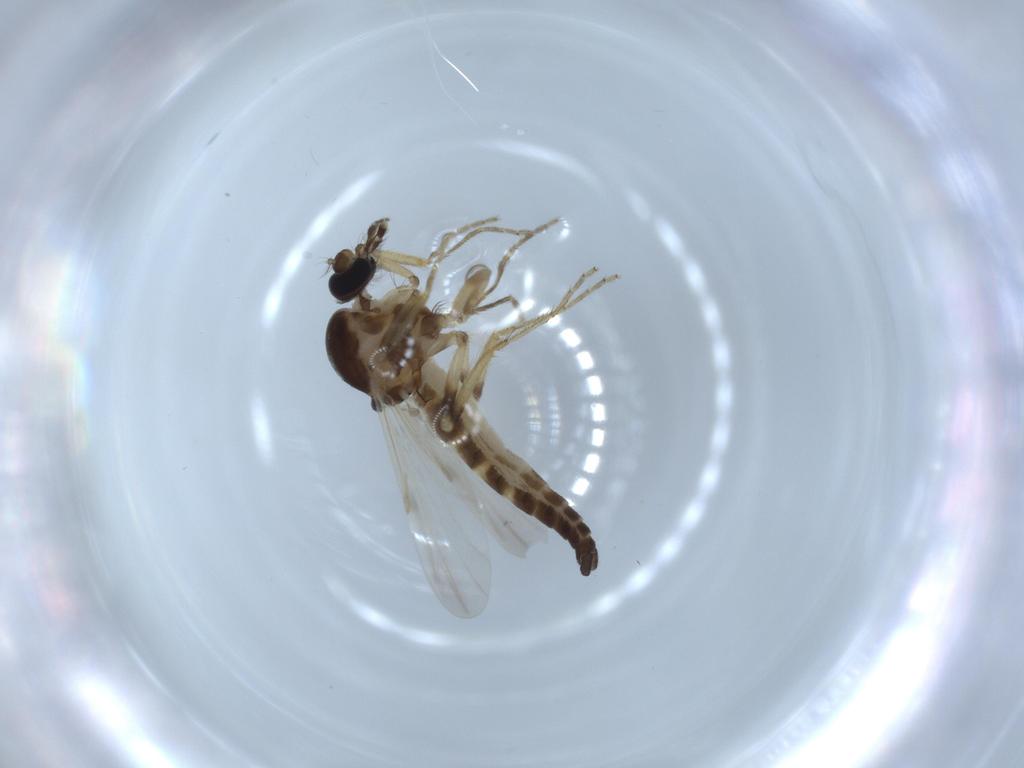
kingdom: Animalia
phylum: Arthropoda
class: Insecta
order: Diptera
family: Ceratopogonidae
